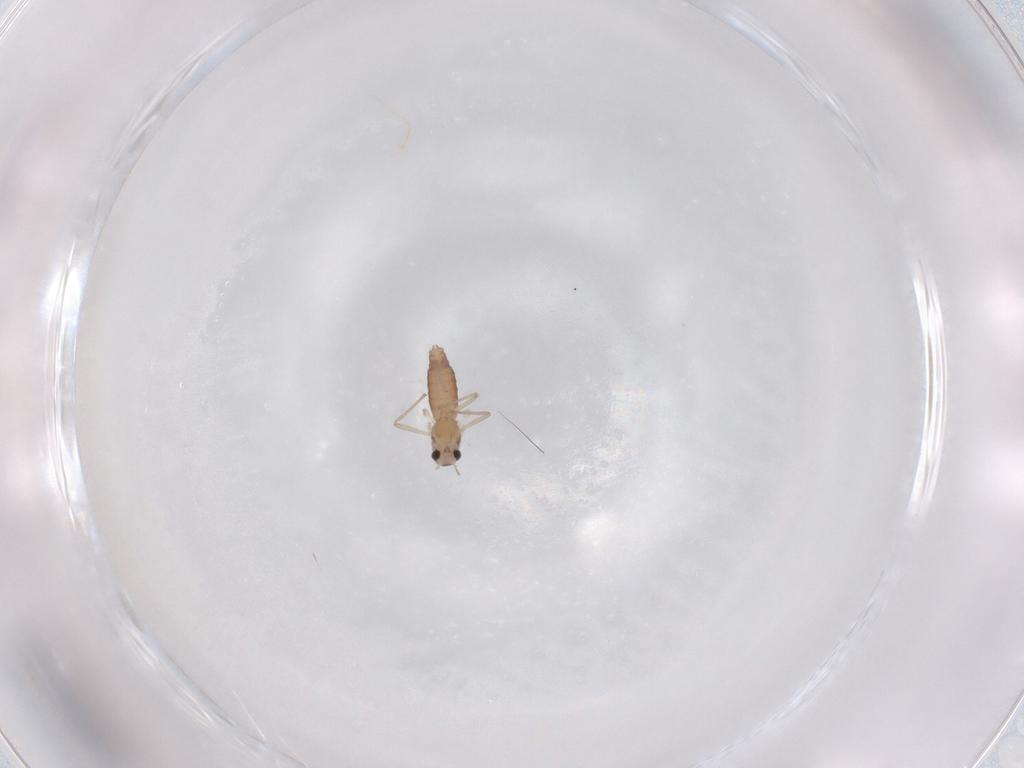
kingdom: Animalia
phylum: Arthropoda
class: Insecta
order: Diptera
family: Chironomidae
